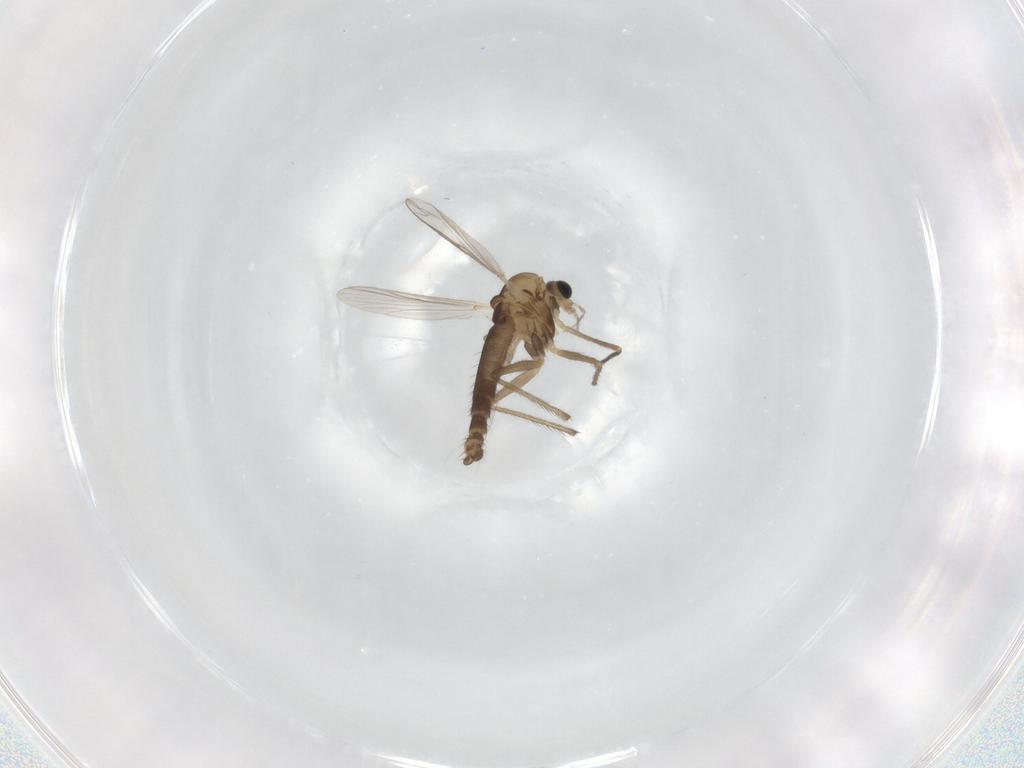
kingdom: Animalia
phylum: Arthropoda
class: Insecta
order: Diptera
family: Chironomidae
